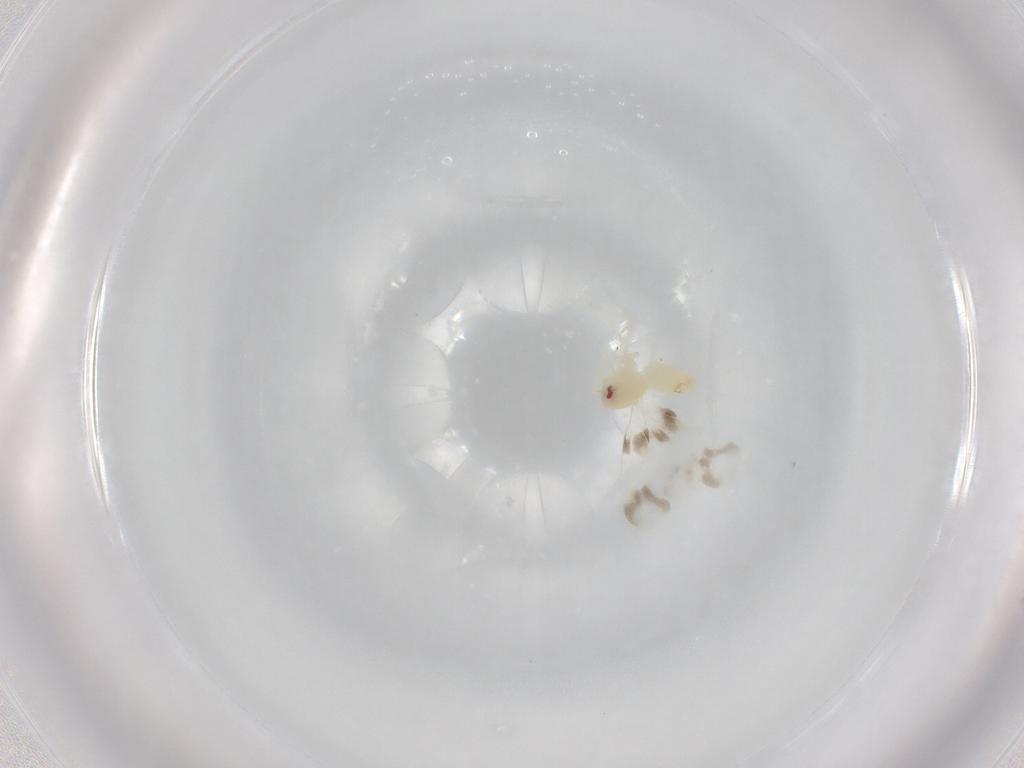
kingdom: Animalia
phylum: Arthropoda
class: Insecta
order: Hemiptera
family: Aleyrodidae
